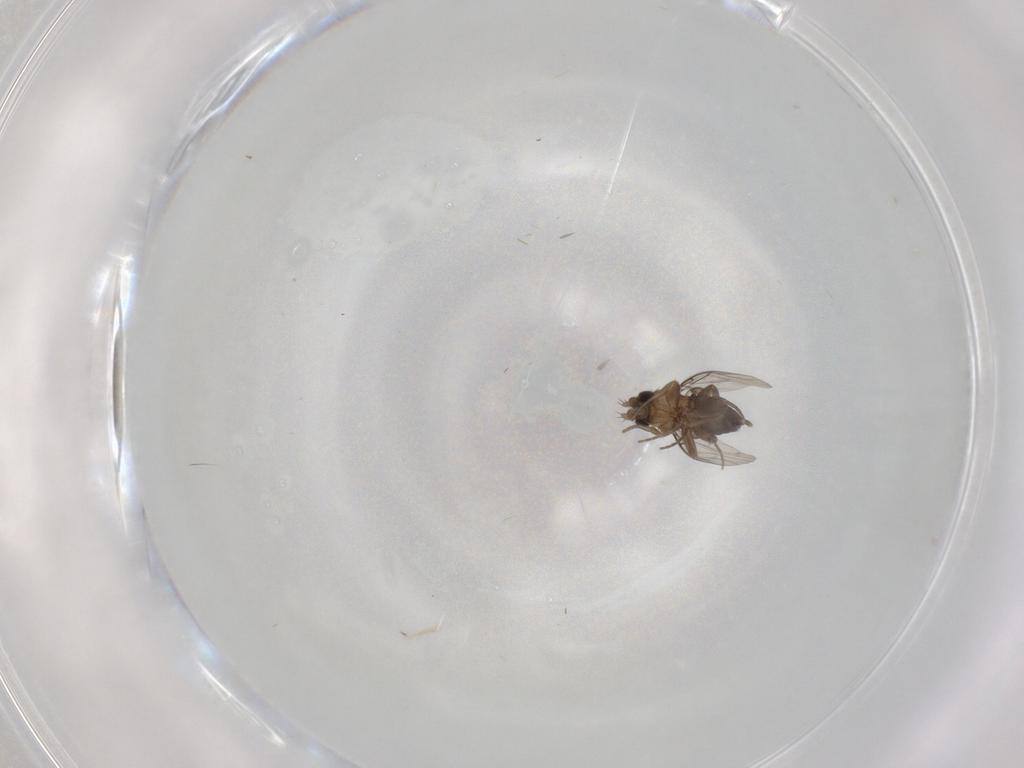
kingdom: Animalia
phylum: Arthropoda
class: Insecta
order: Diptera
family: Phoridae
